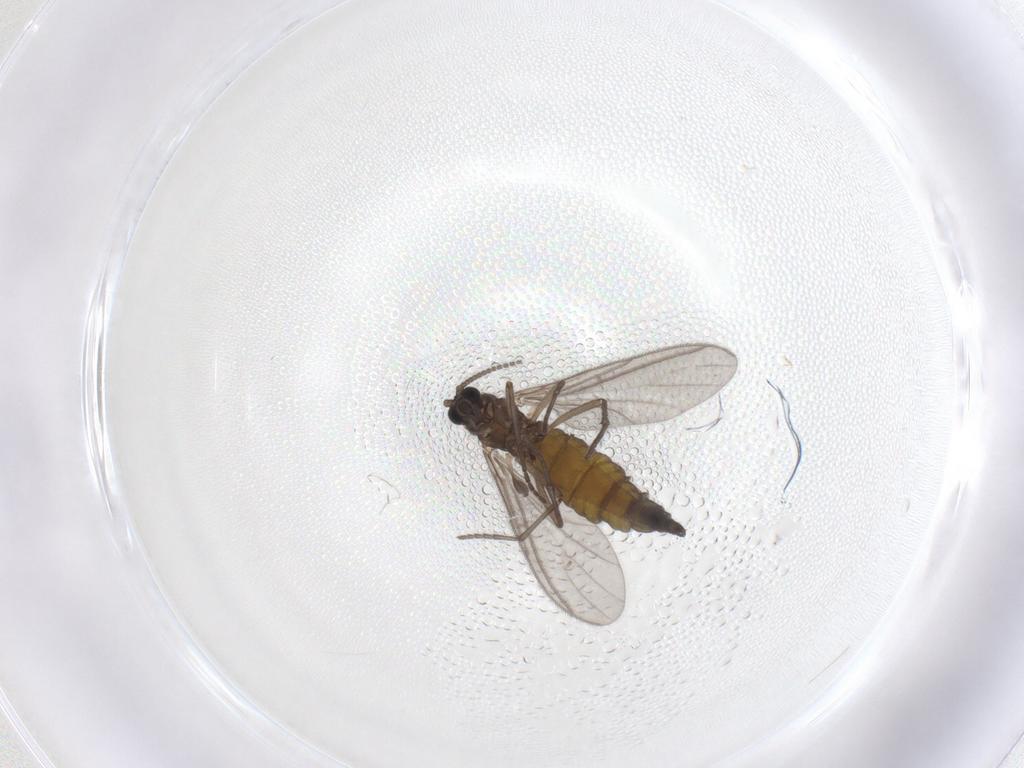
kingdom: Animalia
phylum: Arthropoda
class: Insecta
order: Diptera
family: Sciaridae
